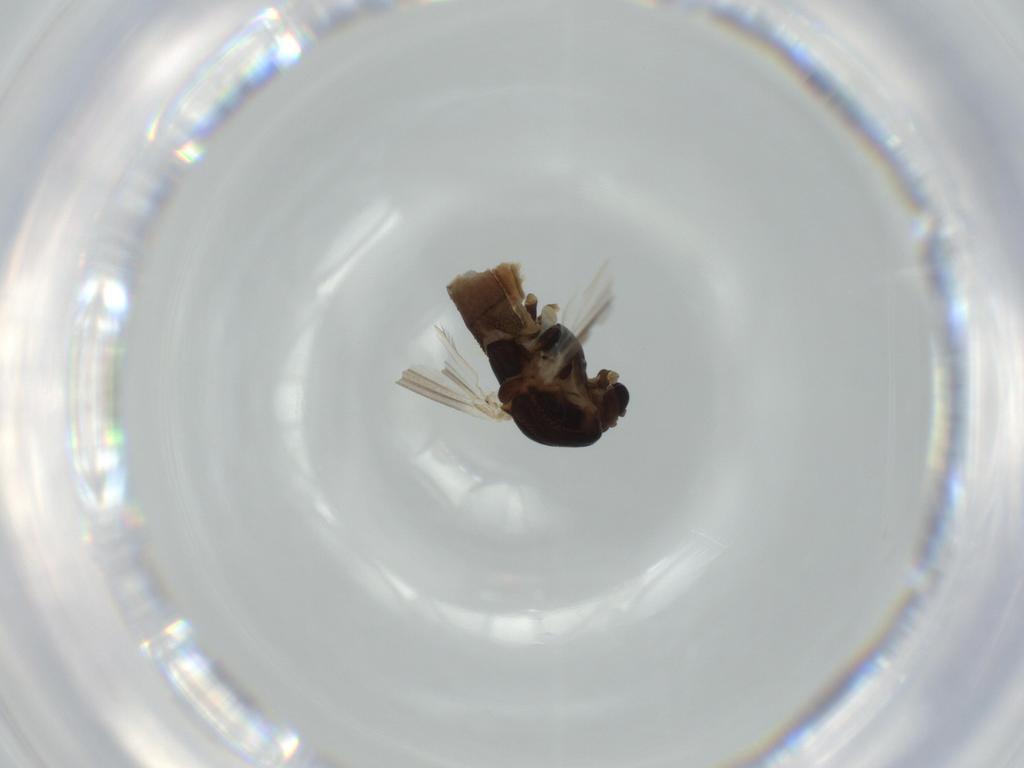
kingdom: Animalia
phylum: Arthropoda
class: Insecta
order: Diptera
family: Chironomidae
